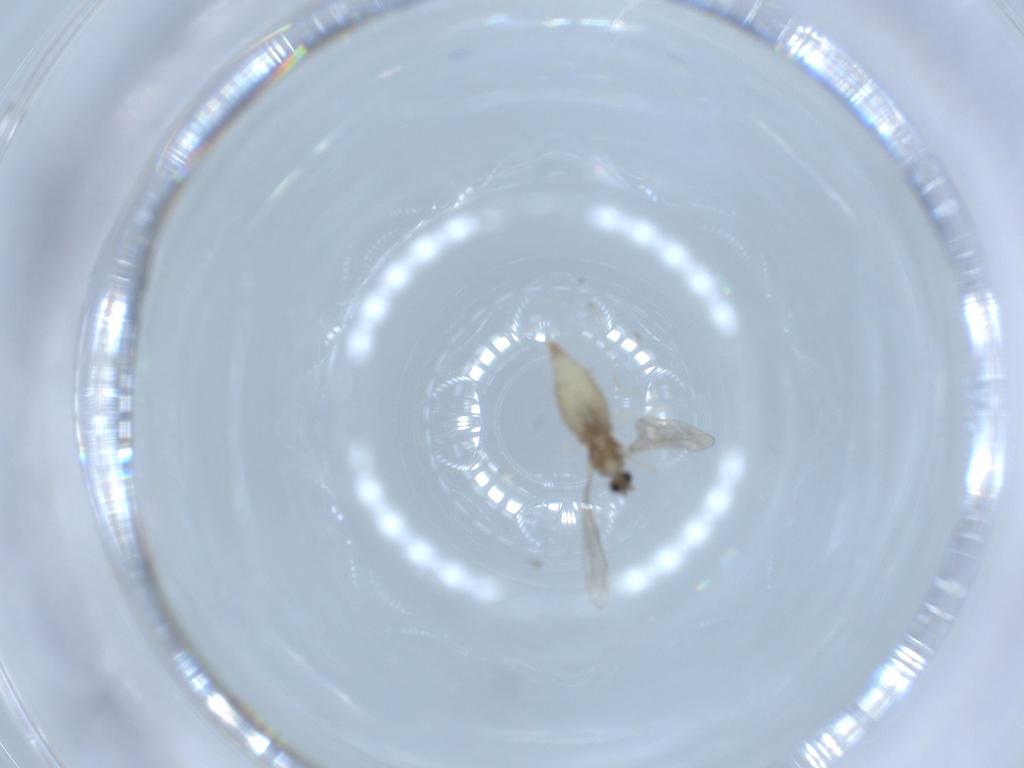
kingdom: Animalia
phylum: Arthropoda
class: Insecta
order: Diptera
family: Cecidomyiidae
